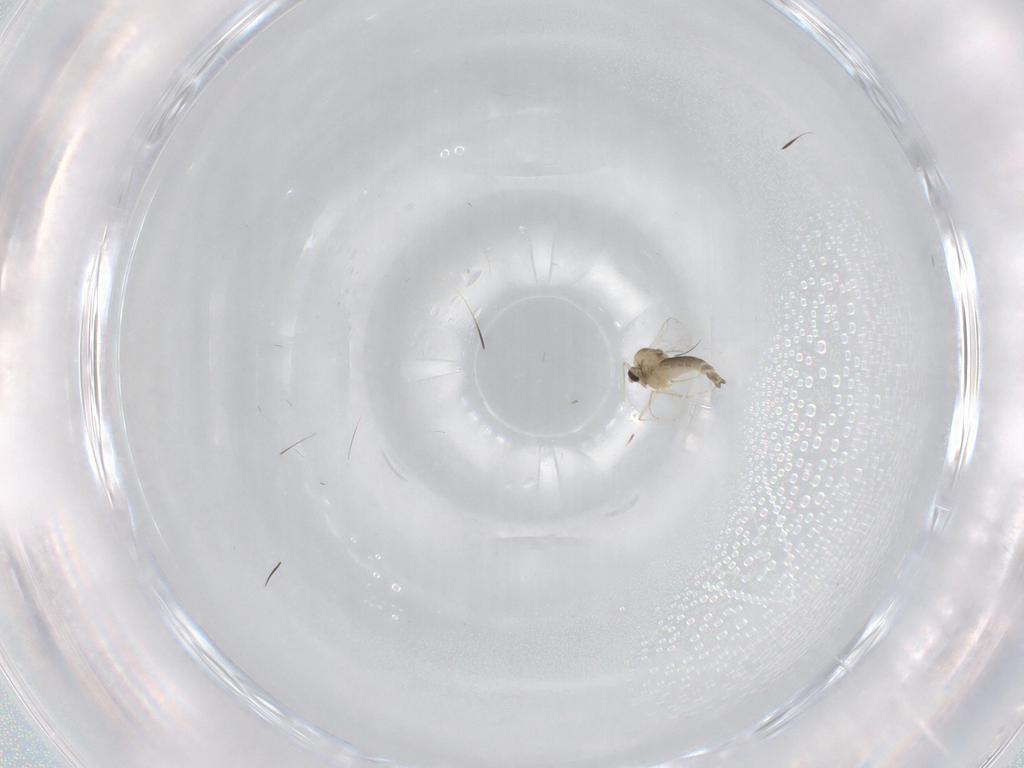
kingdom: Animalia
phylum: Arthropoda
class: Insecta
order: Diptera
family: Chironomidae
